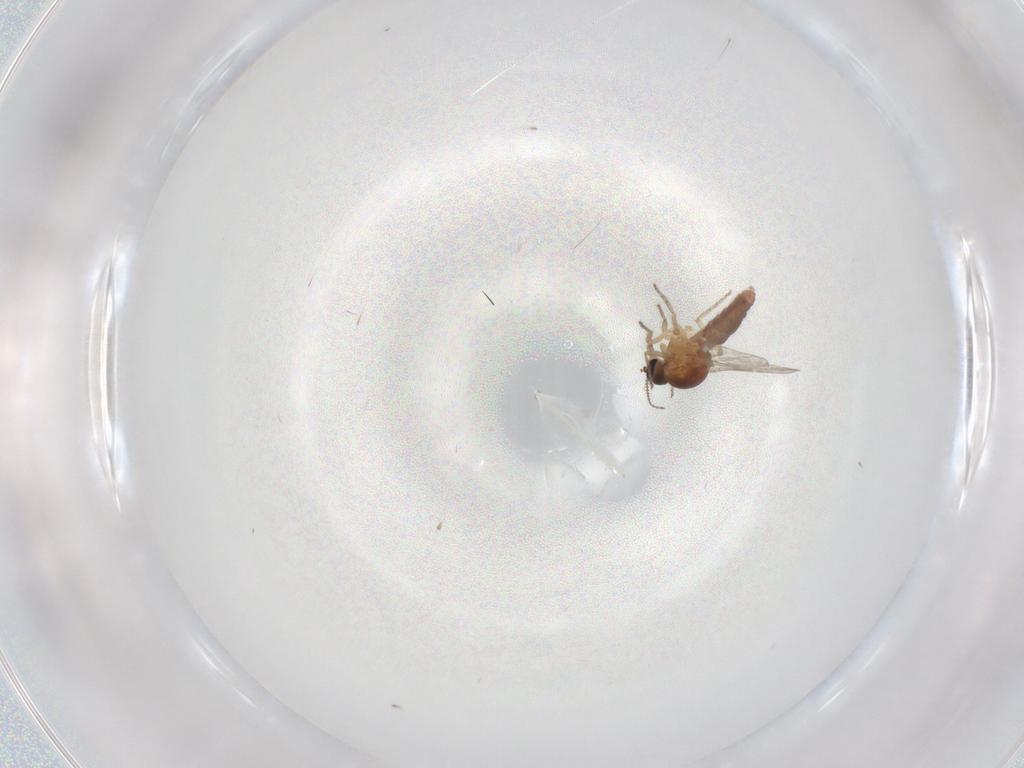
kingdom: Animalia
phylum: Arthropoda
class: Insecta
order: Diptera
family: Ceratopogonidae
